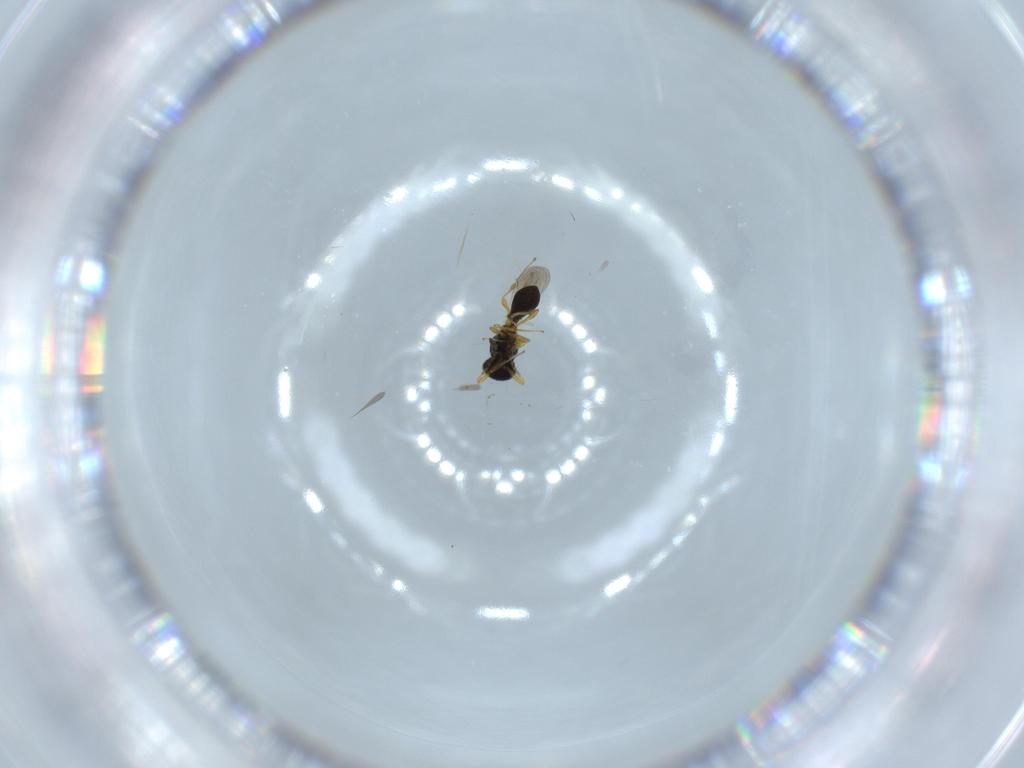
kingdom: Animalia
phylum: Arthropoda
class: Insecta
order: Hymenoptera
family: Platygastridae
